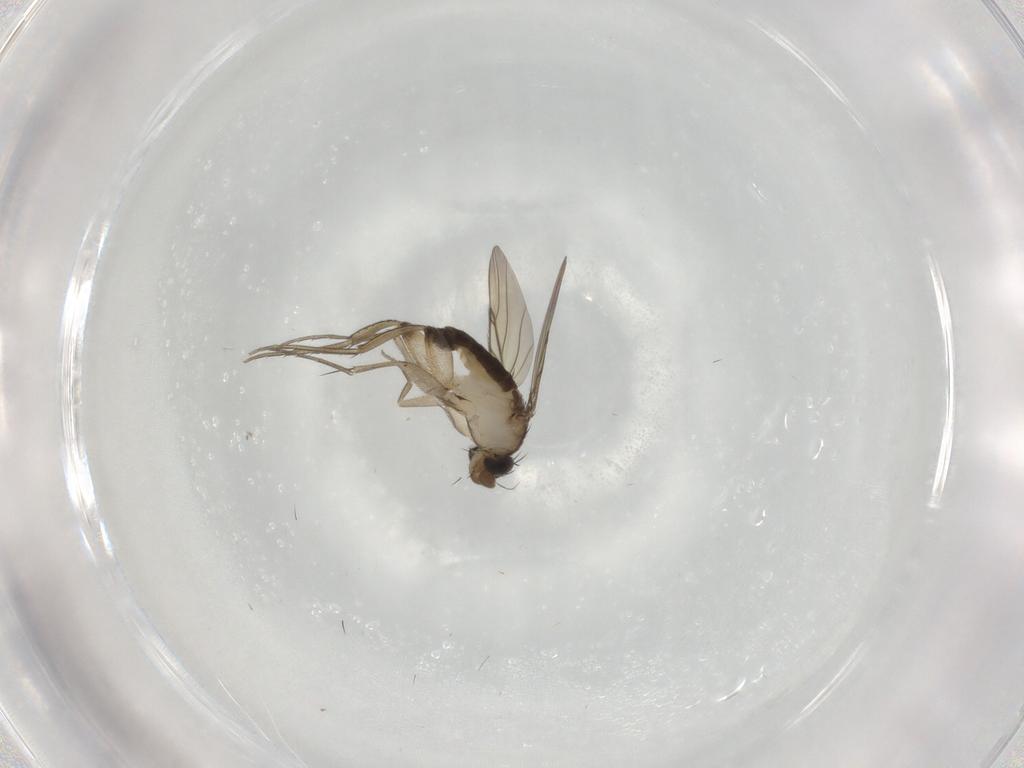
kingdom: Animalia
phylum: Arthropoda
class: Insecta
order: Diptera
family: Phoridae
